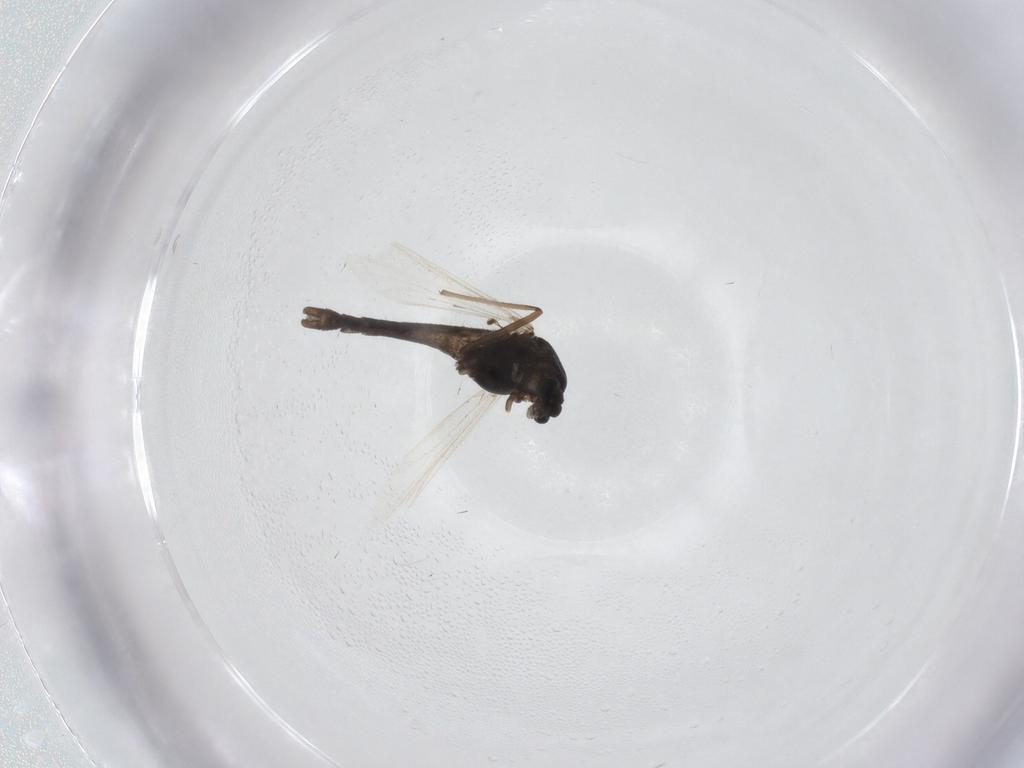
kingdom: Animalia
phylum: Arthropoda
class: Insecta
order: Diptera
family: Chironomidae
